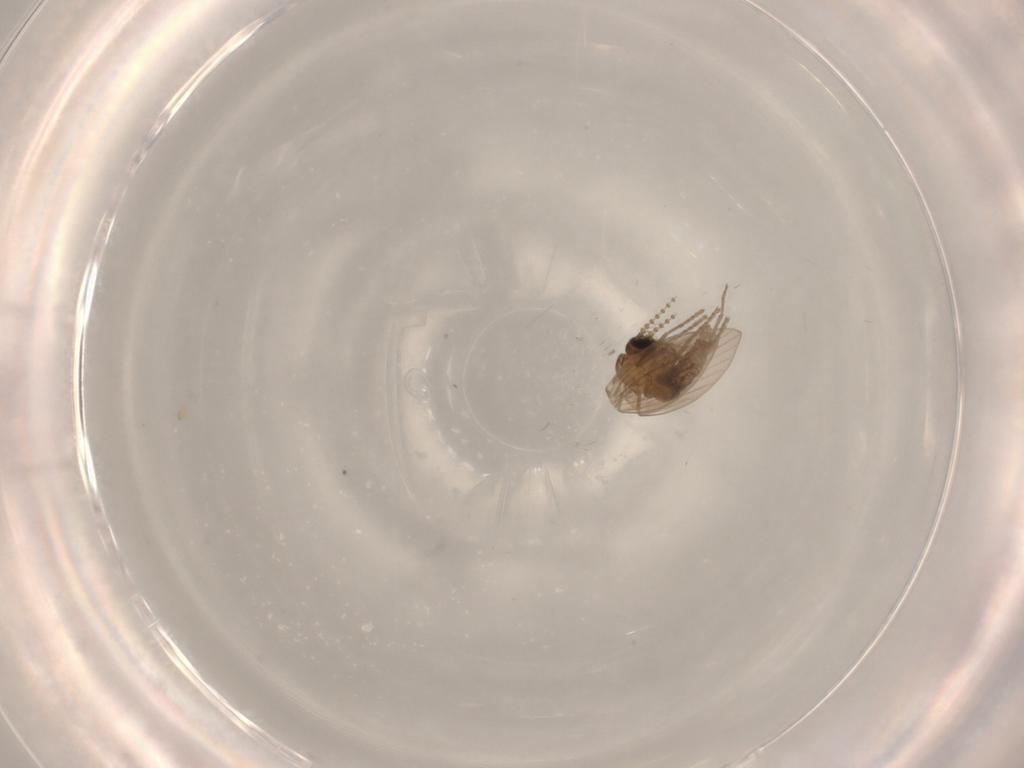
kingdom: Animalia
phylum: Arthropoda
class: Insecta
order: Diptera
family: Psychodidae
